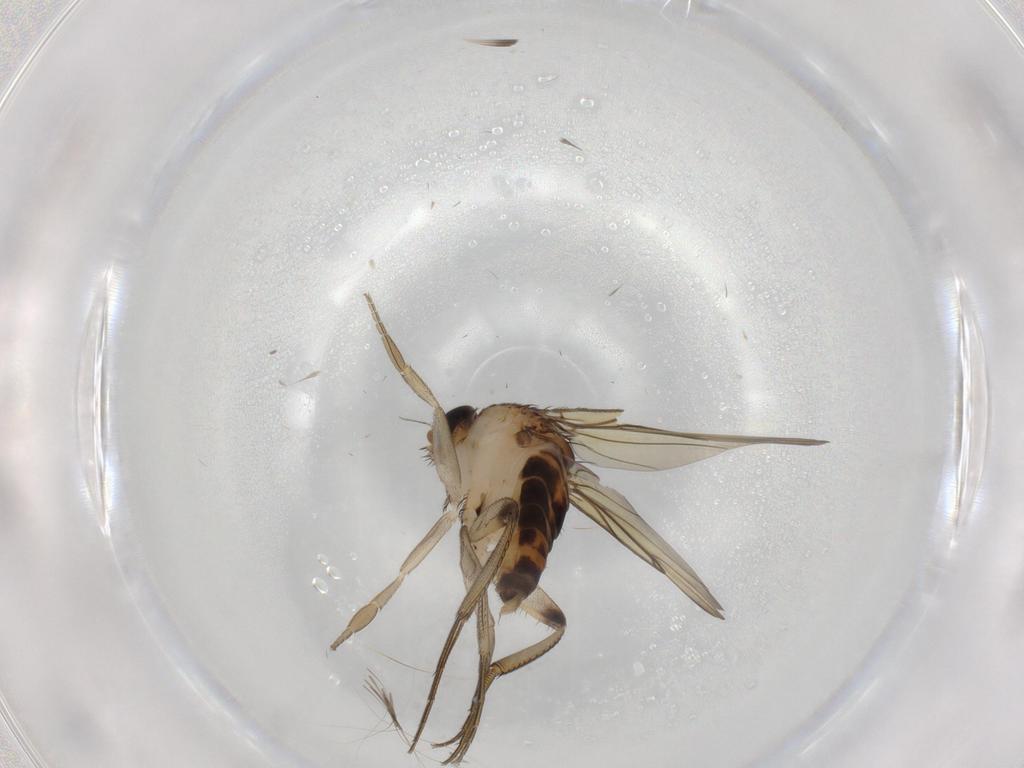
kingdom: Animalia
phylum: Arthropoda
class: Insecta
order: Diptera
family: Phoridae
